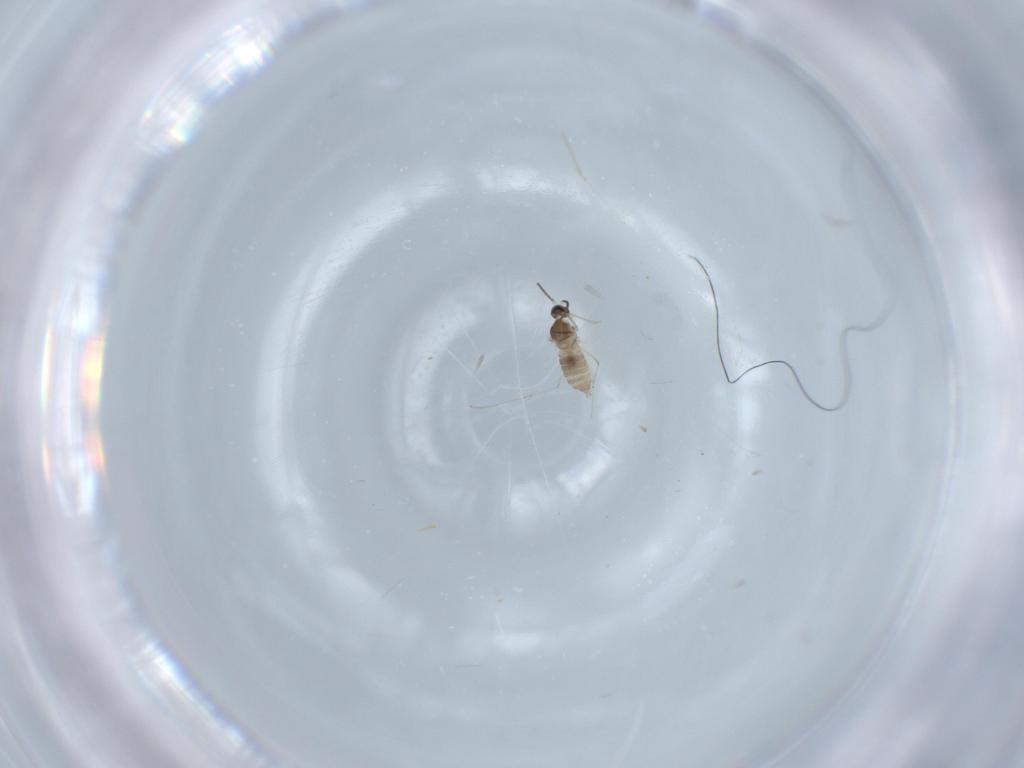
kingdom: Animalia
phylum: Arthropoda
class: Insecta
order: Diptera
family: Cecidomyiidae
